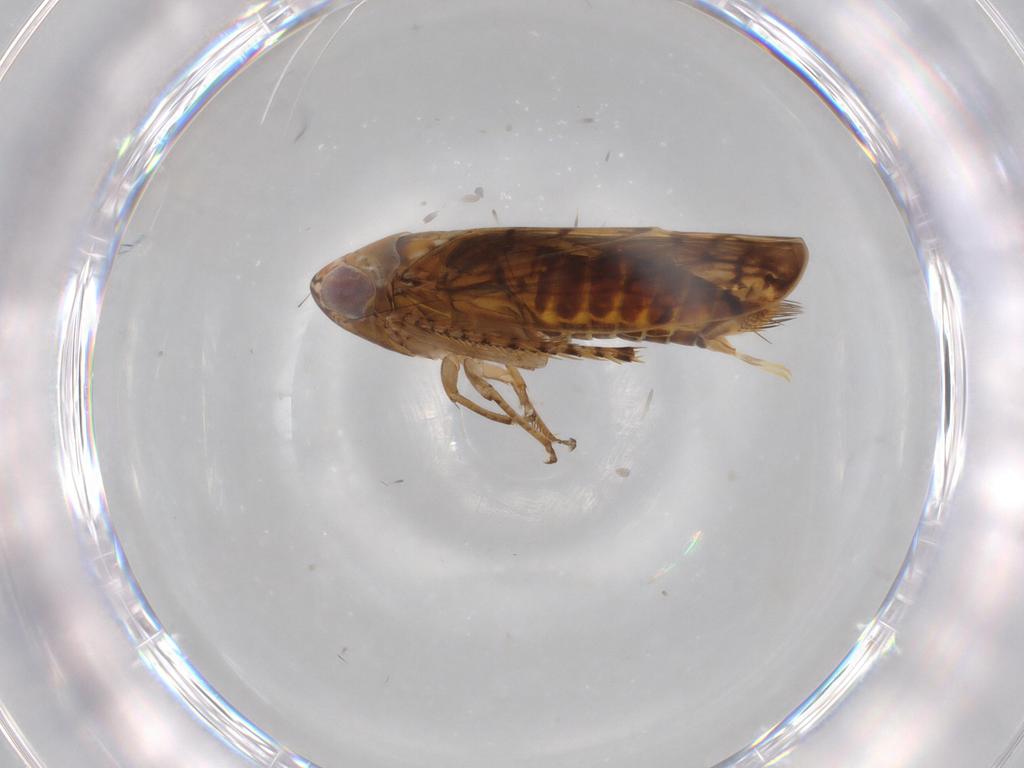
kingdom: Animalia
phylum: Arthropoda
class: Insecta
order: Hemiptera
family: Cicadellidae
